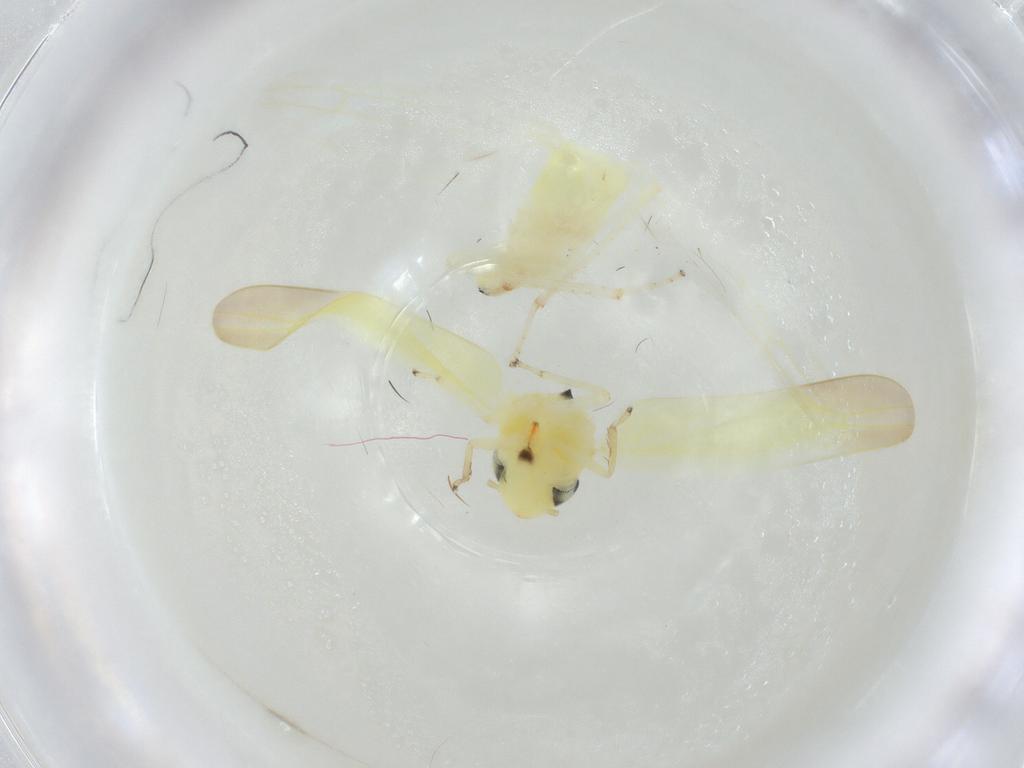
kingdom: Animalia
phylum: Arthropoda
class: Insecta
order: Hemiptera
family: Cicadellidae
